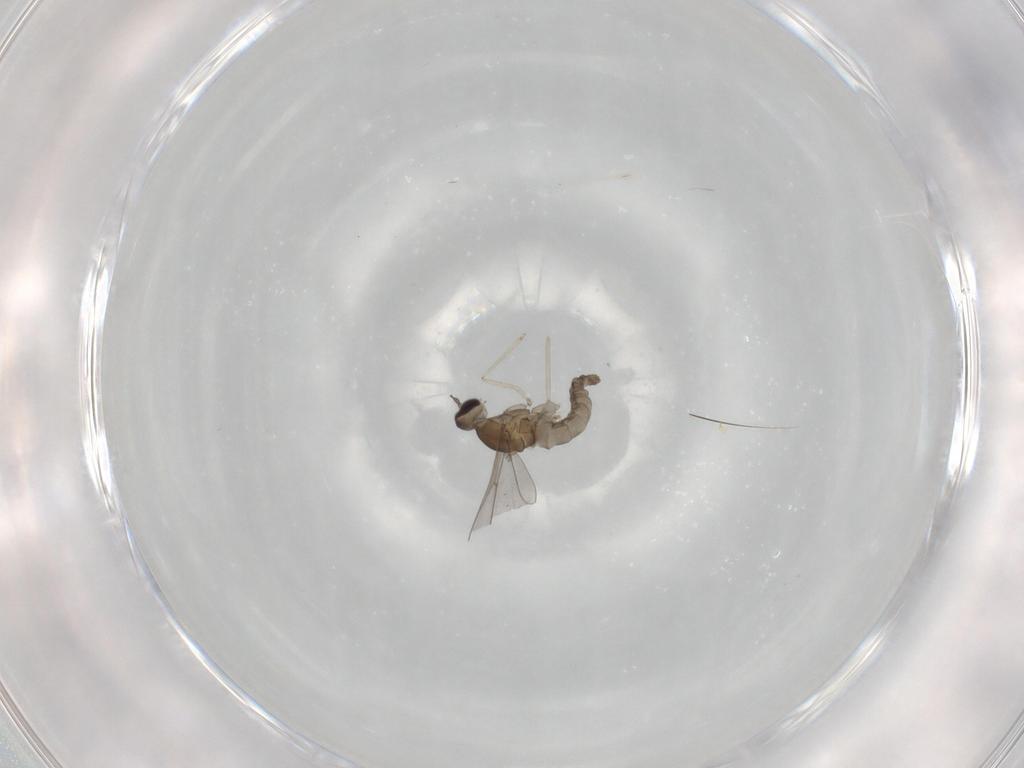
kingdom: Animalia
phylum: Arthropoda
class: Insecta
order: Diptera
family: Cecidomyiidae
